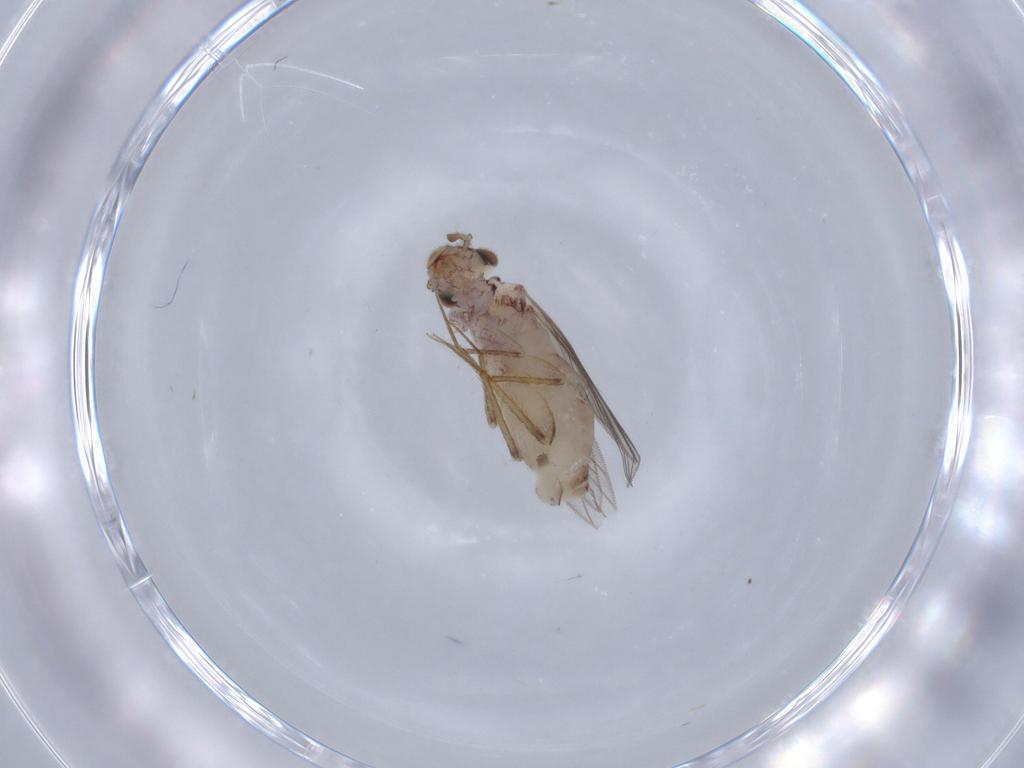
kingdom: Animalia
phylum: Arthropoda
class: Insecta
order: Psocodea
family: Lepidopsocidae
